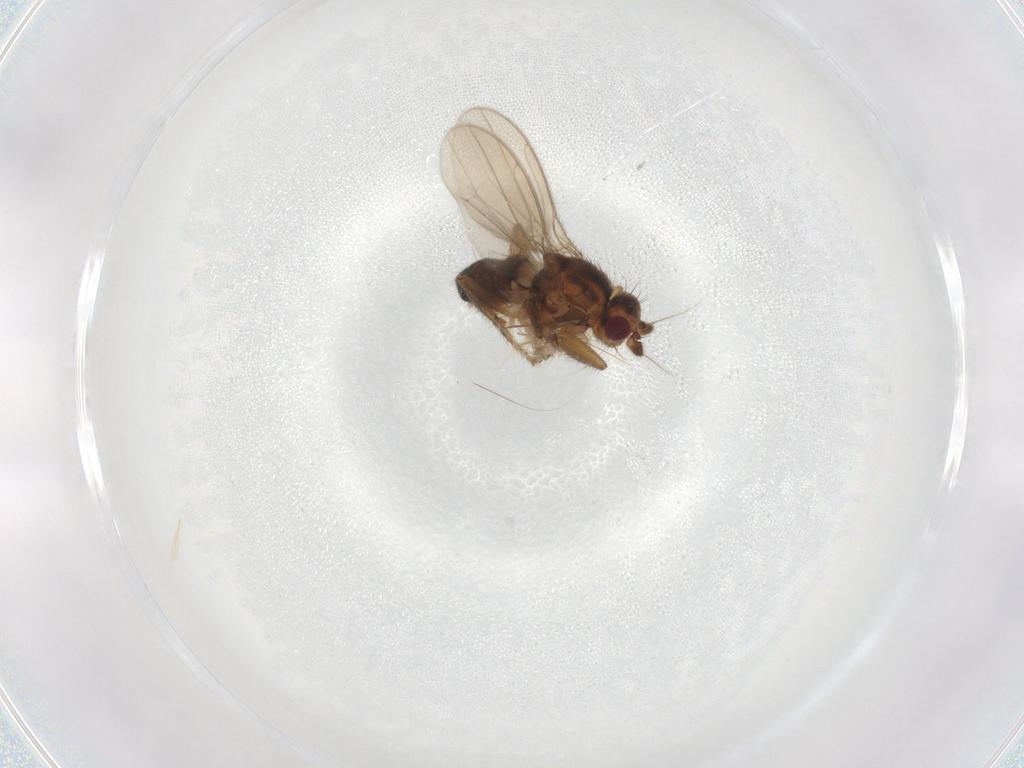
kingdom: Animalia
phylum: Arthropoda
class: Insecta
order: Diptera
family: Sphaeroceridae
